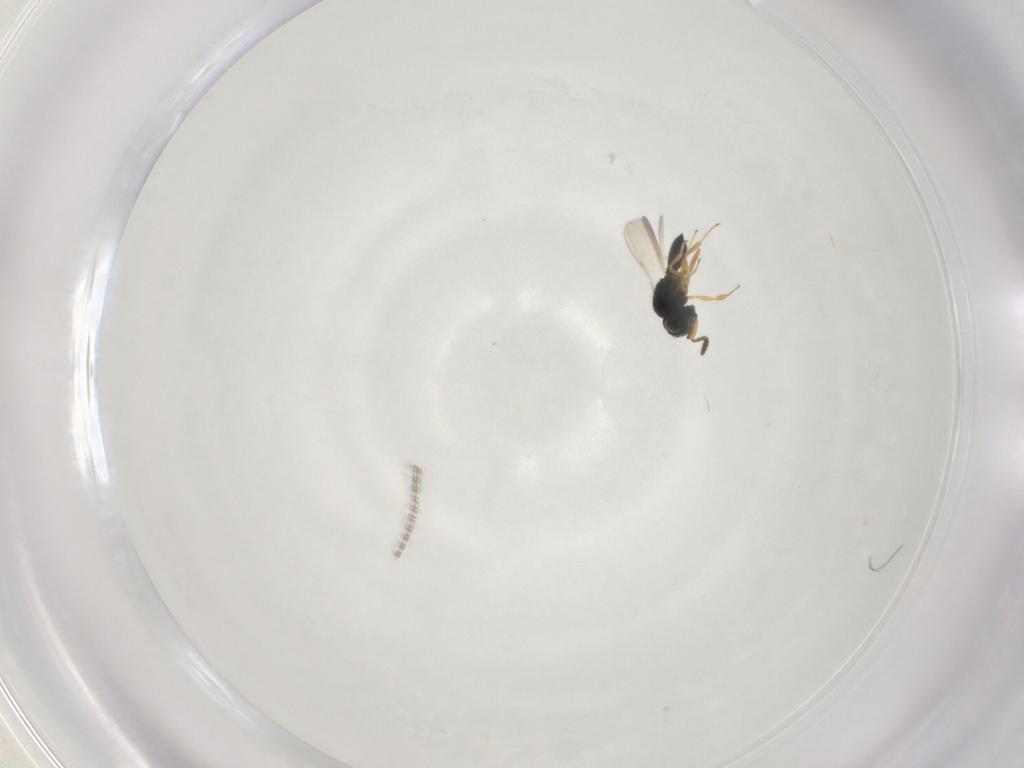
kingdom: Animalia
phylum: Arthropoda
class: Insecta
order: Hymenoptera
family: Scelionidae
